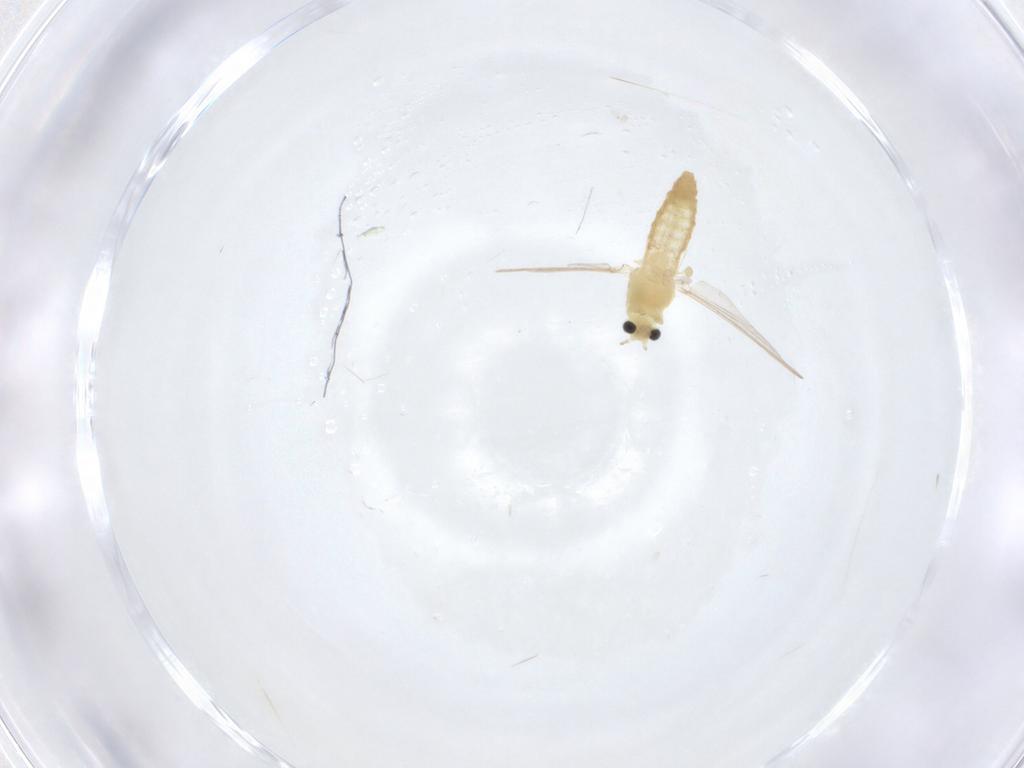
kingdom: Animalia
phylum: Arthropoda
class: Insecta
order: Diptera
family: Chironomidae
